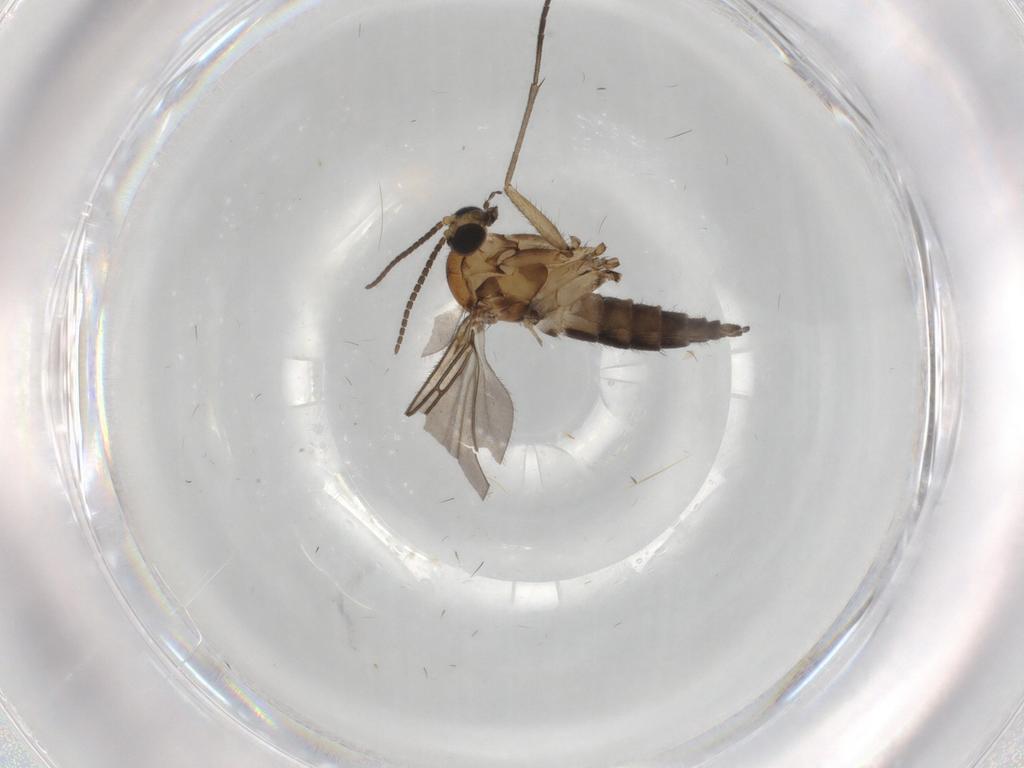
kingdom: Animalia
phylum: Arthropoda
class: Insecta
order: Diptera
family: Sciaridae
